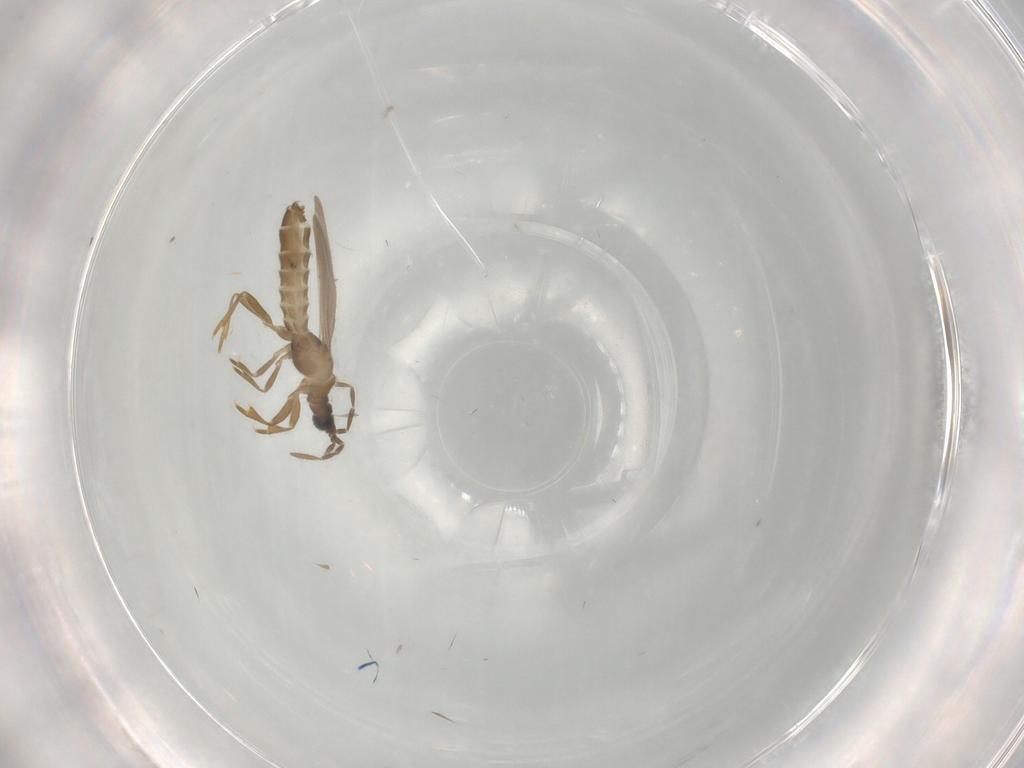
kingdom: Animalia
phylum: Arthropoda
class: Insecta
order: Hemiptera
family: Enicocephalidae
